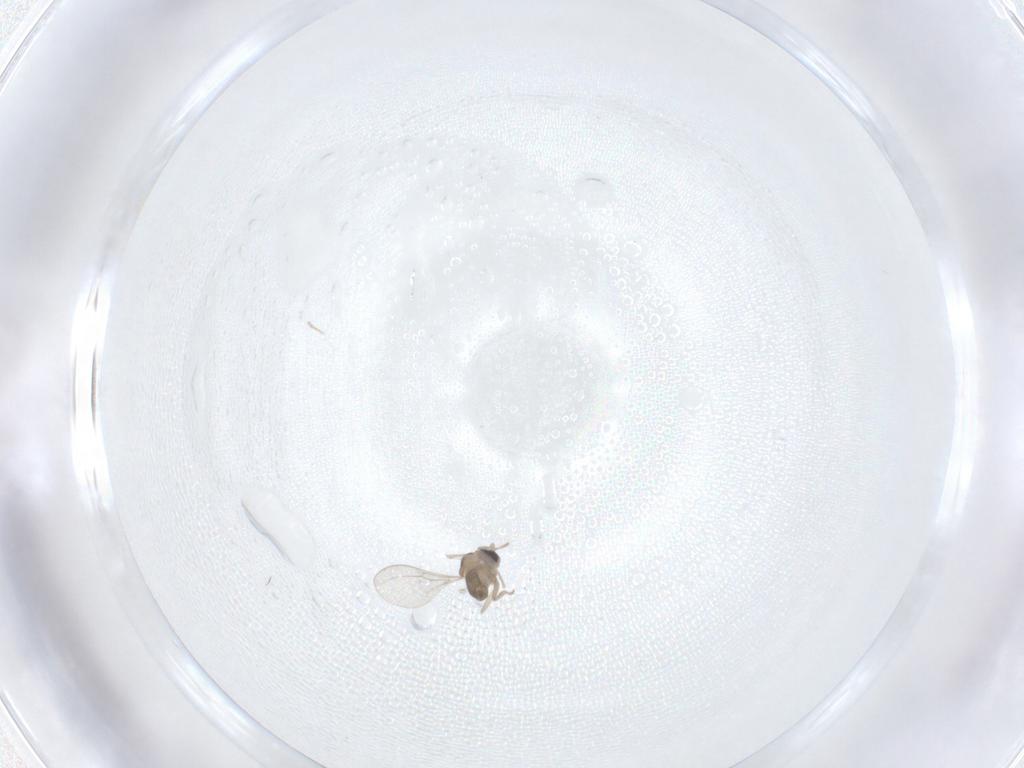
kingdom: Animalia
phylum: Arthropoda
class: Insecta
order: Diptera
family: Cecidomyiidae
